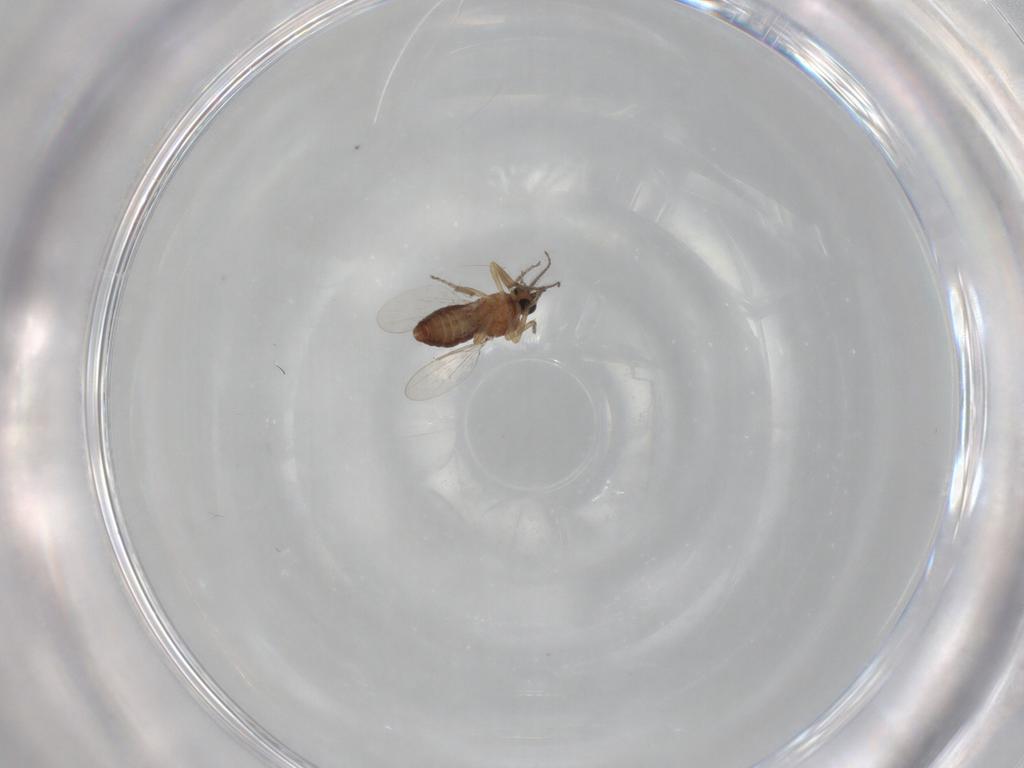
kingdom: Animalia
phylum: Arthropoda
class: Insecta
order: Diptera
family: Ceratopogonidae
